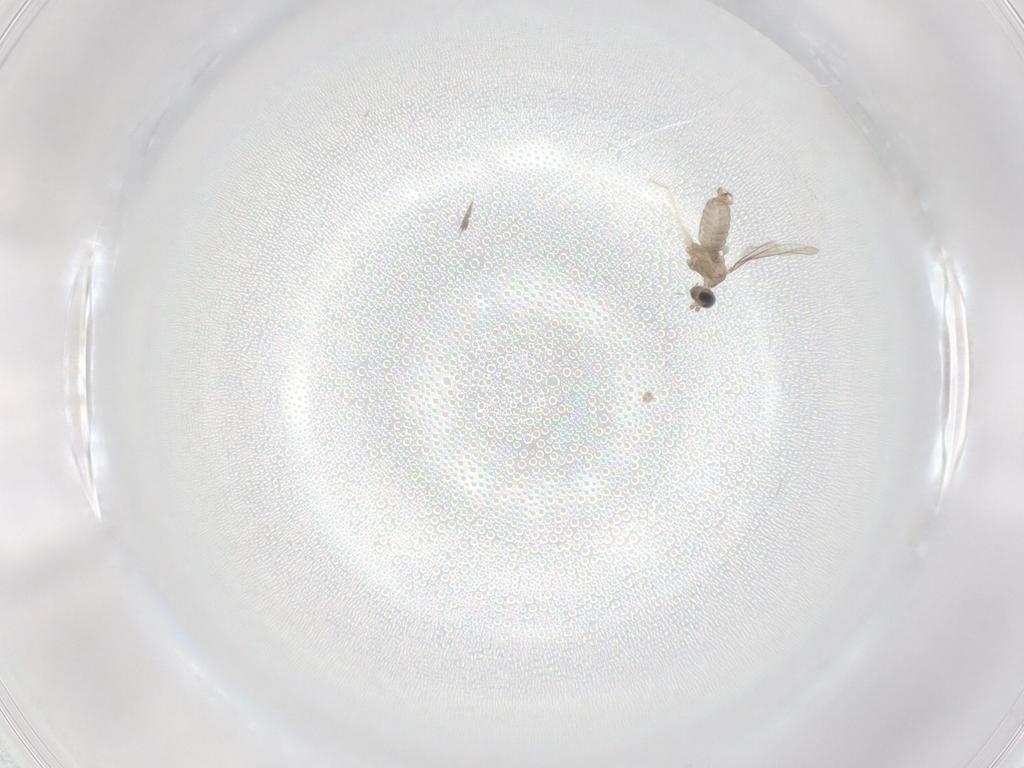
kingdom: Animalia
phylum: Arthropoda
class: Insecta
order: Diptera
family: Cecidomyiidae
